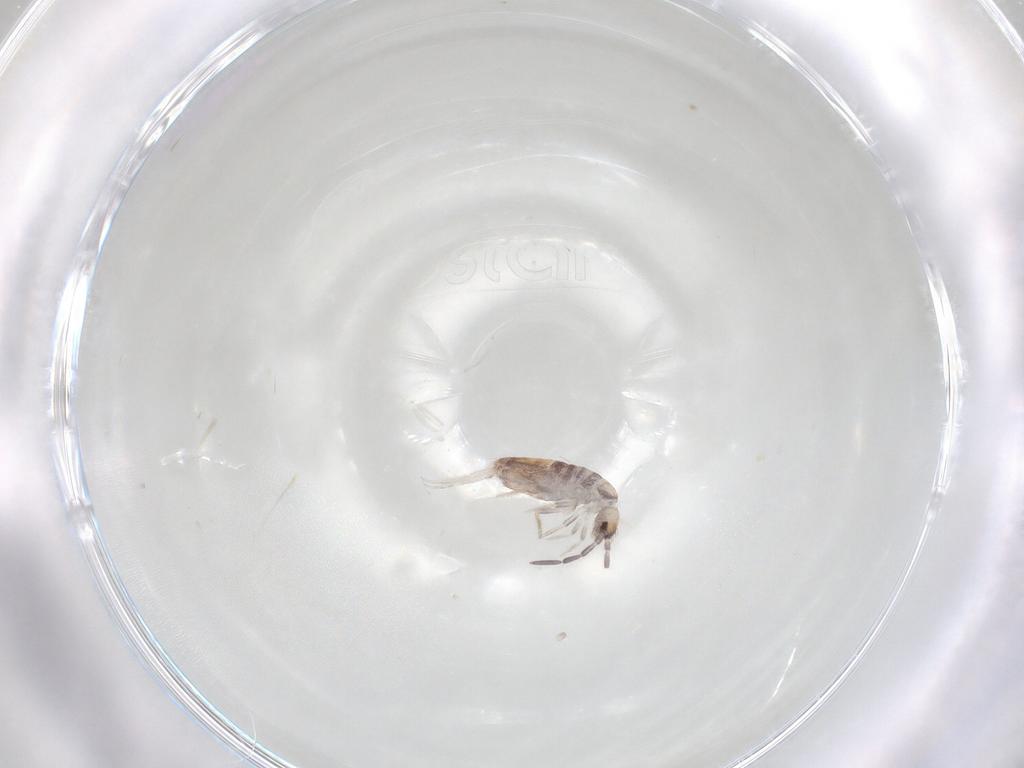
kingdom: Animalia
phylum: Arthropoda
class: Collembola
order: Poduromorpha
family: Hypogastruridae
